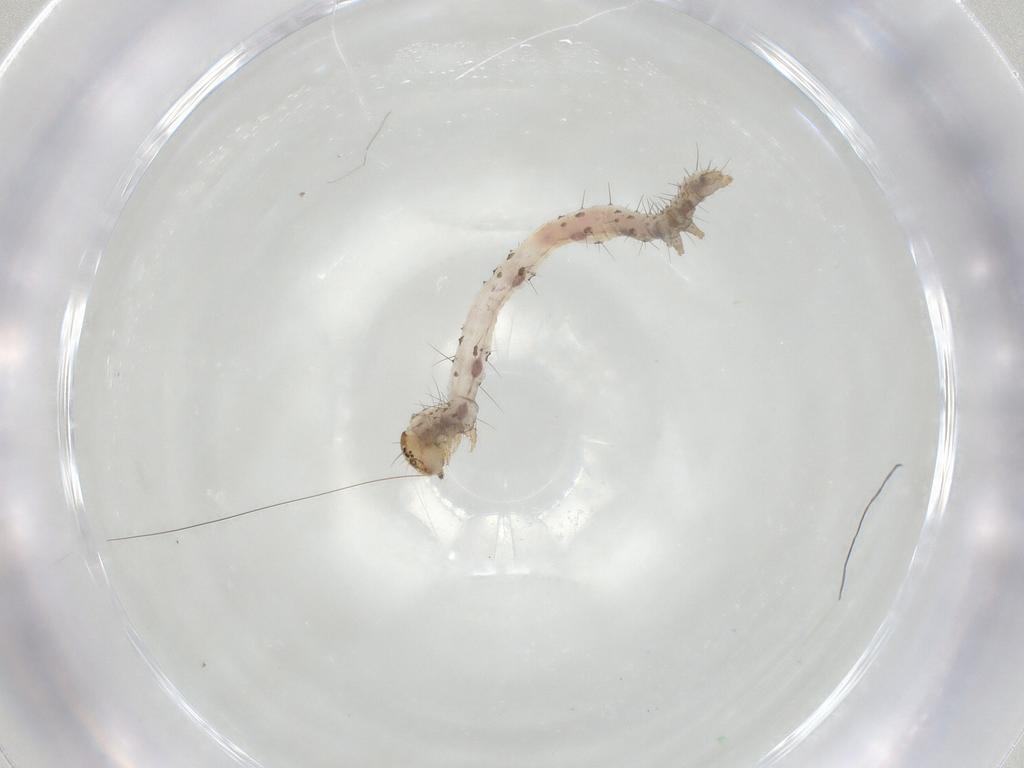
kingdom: Animalia
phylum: Arthropoda
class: Insecta
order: Lepidoptera
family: Erebidae
